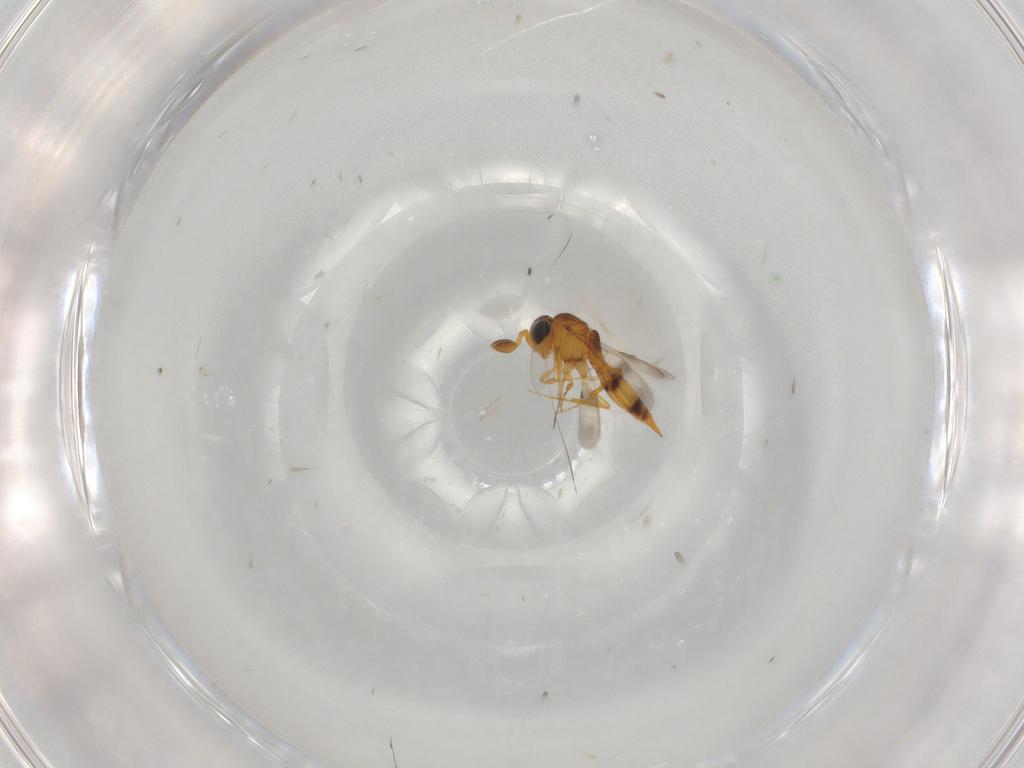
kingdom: Animalia
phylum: Arthropoda
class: Insecta
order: Hymenoptera
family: Scelionidae
